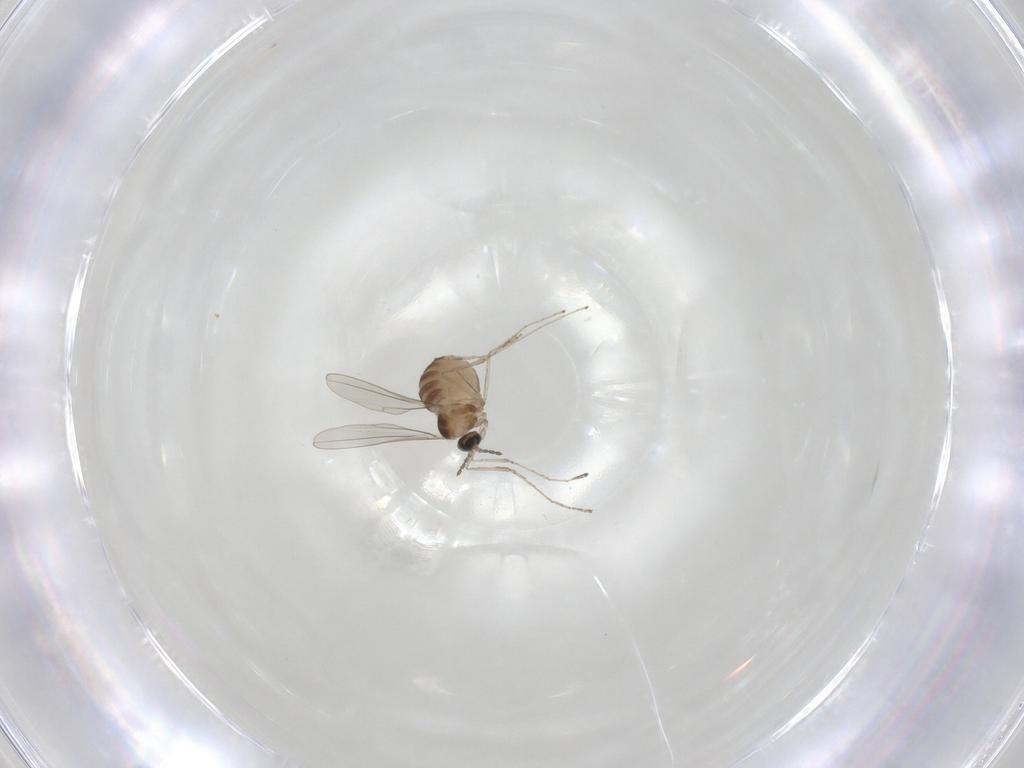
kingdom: Animalia
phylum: Arthropoda
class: Insecta
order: Diptera
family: Cecidomyiidae
